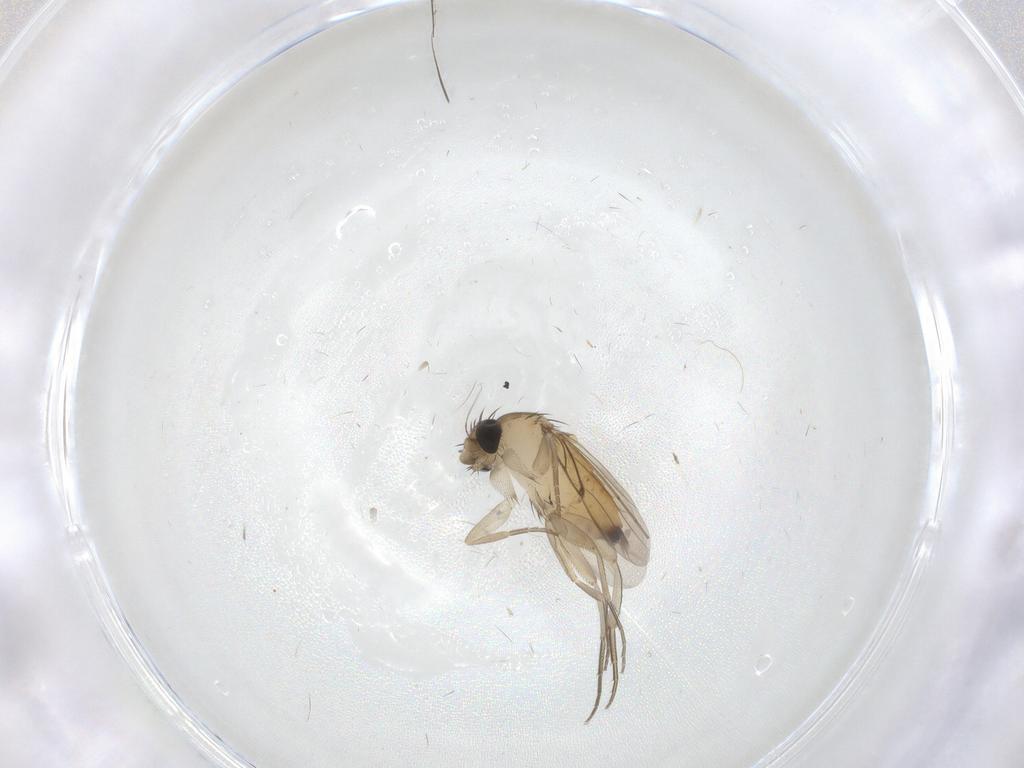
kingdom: Animalia
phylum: Arthropoda
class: Insecta
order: Diptera
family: Phoridae
